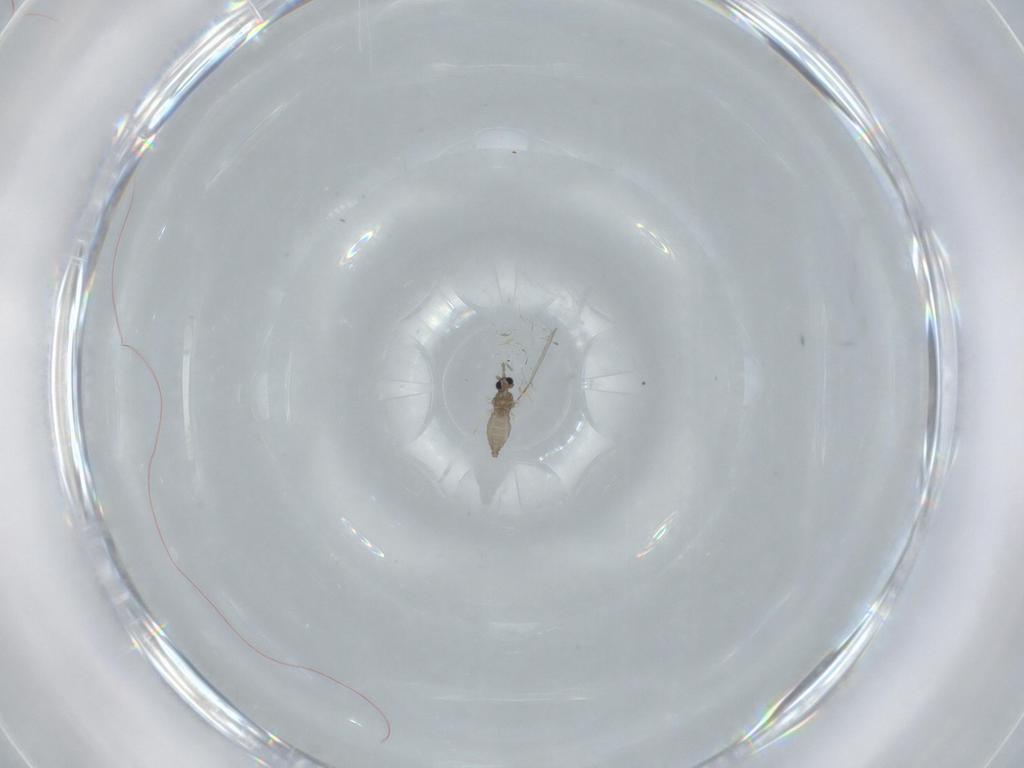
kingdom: Animalia
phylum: Arthropoda
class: Insecta
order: Diptera
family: Cecidomyiidae
